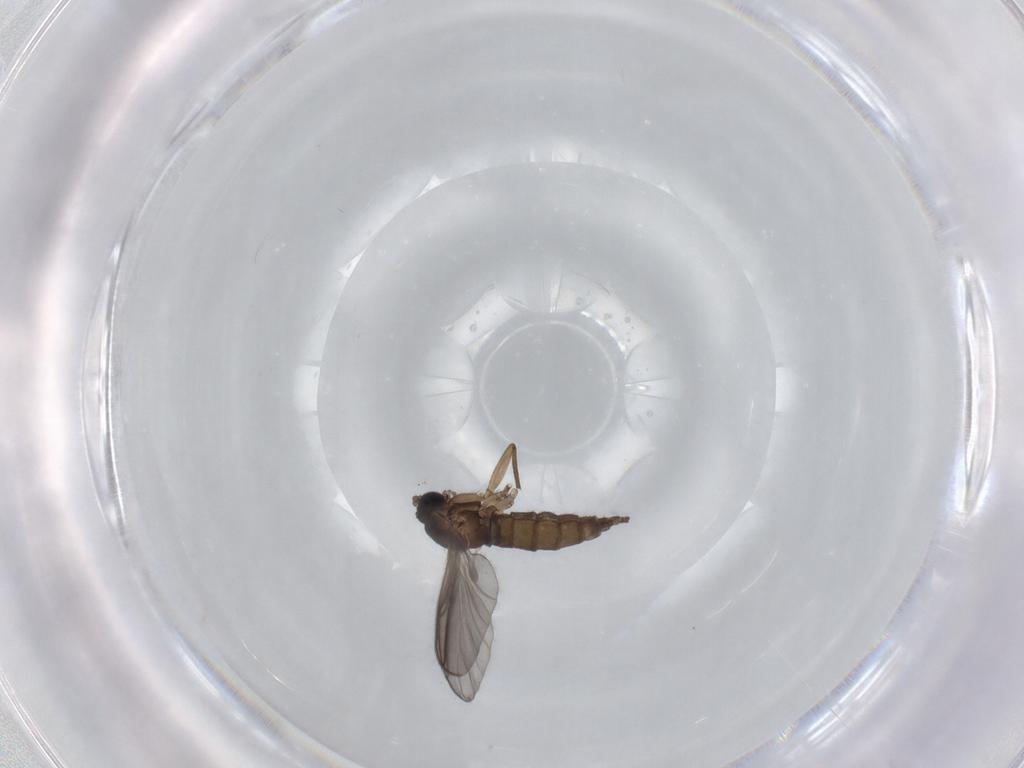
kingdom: Animalia
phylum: Arthropoda
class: Insecta
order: Diptera
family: Sciaridae
